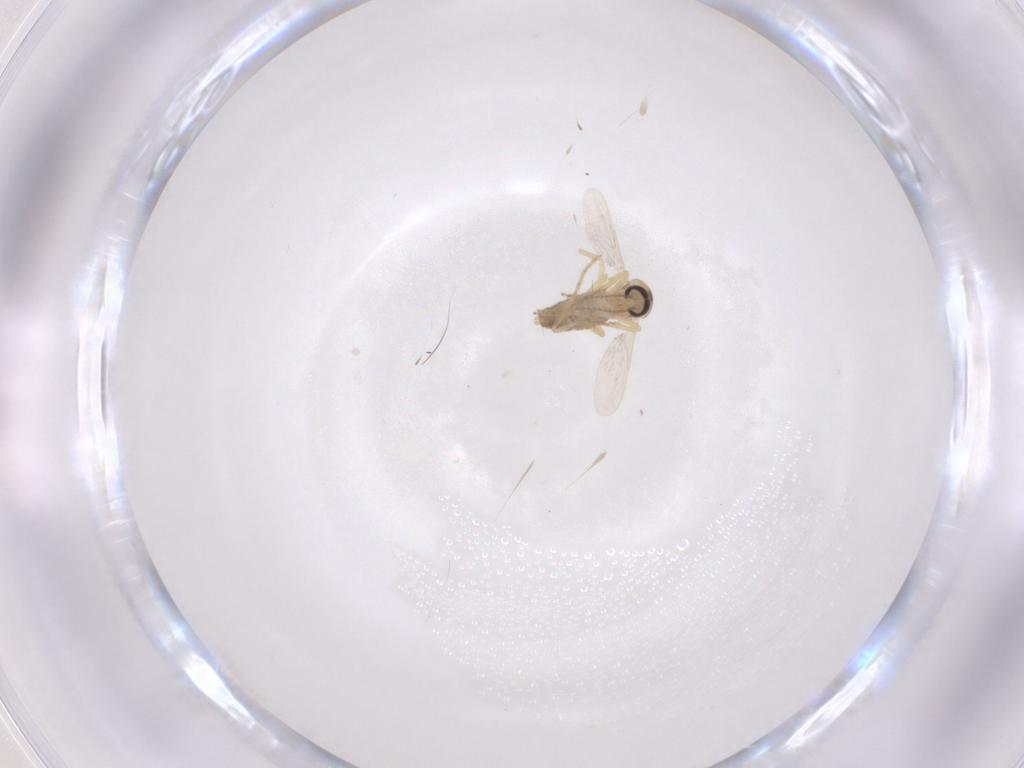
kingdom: Animalia
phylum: Arthropoda
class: Insecta
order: Diptera
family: Ceratopogonidae
